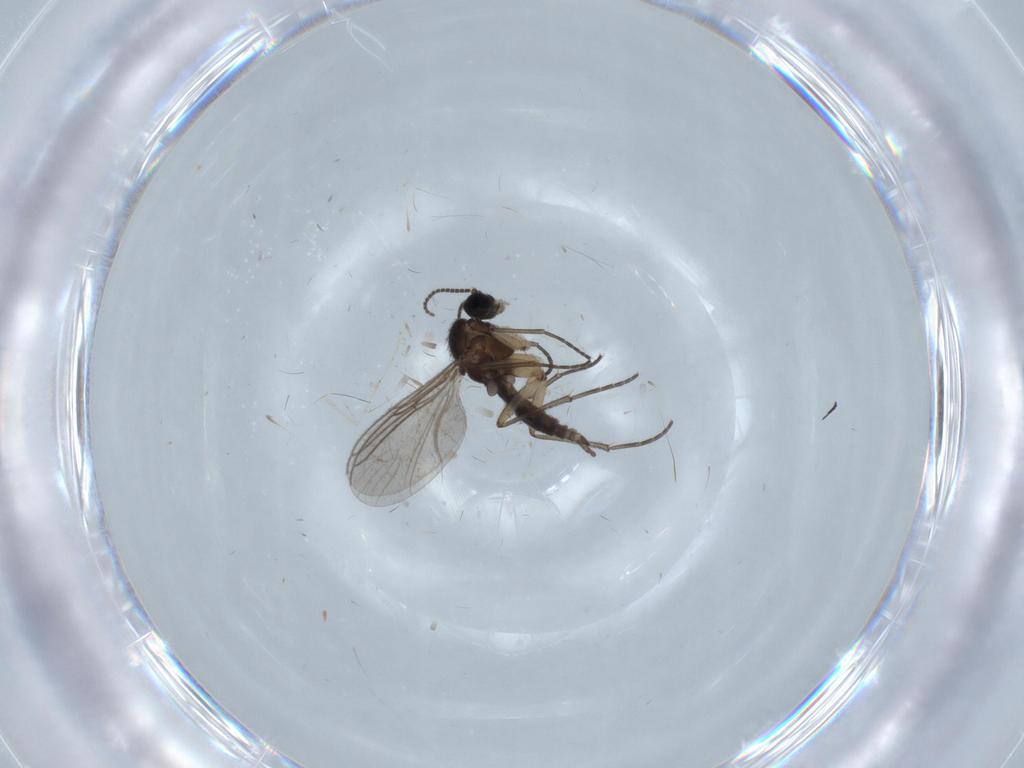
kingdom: Animalia
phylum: Arthropoda
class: Insecta
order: Diptera
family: Sciaridae
